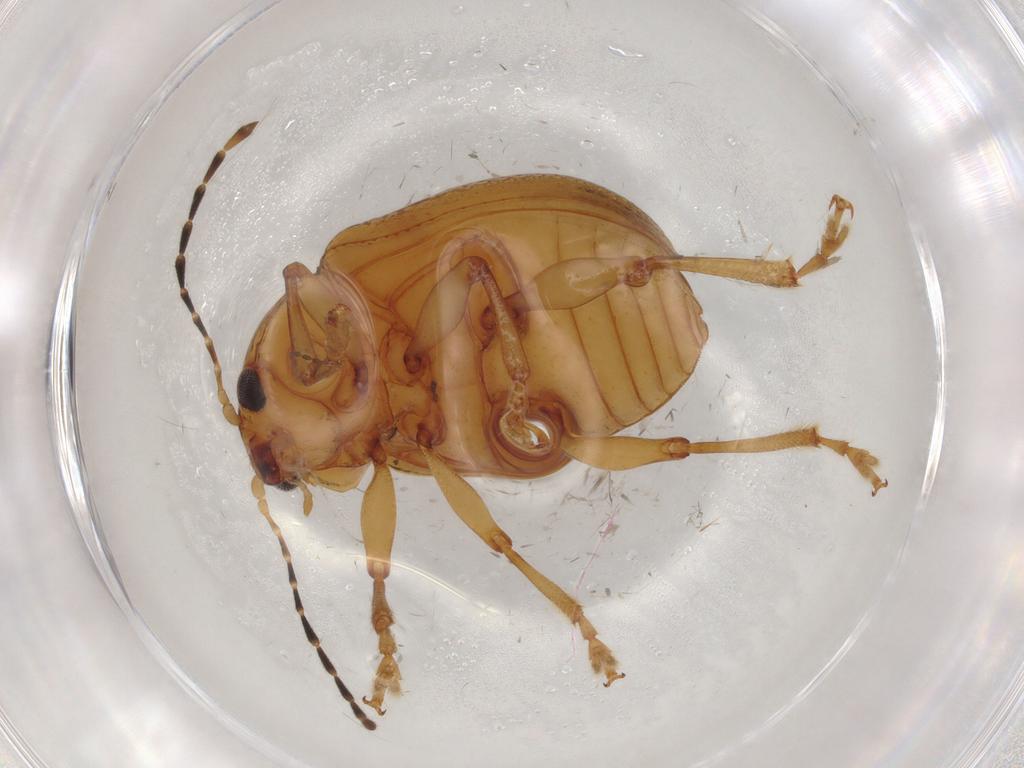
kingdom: Animalia
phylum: Arthropoda
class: Insecta
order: Coleoptera
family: Chrysomelidae
